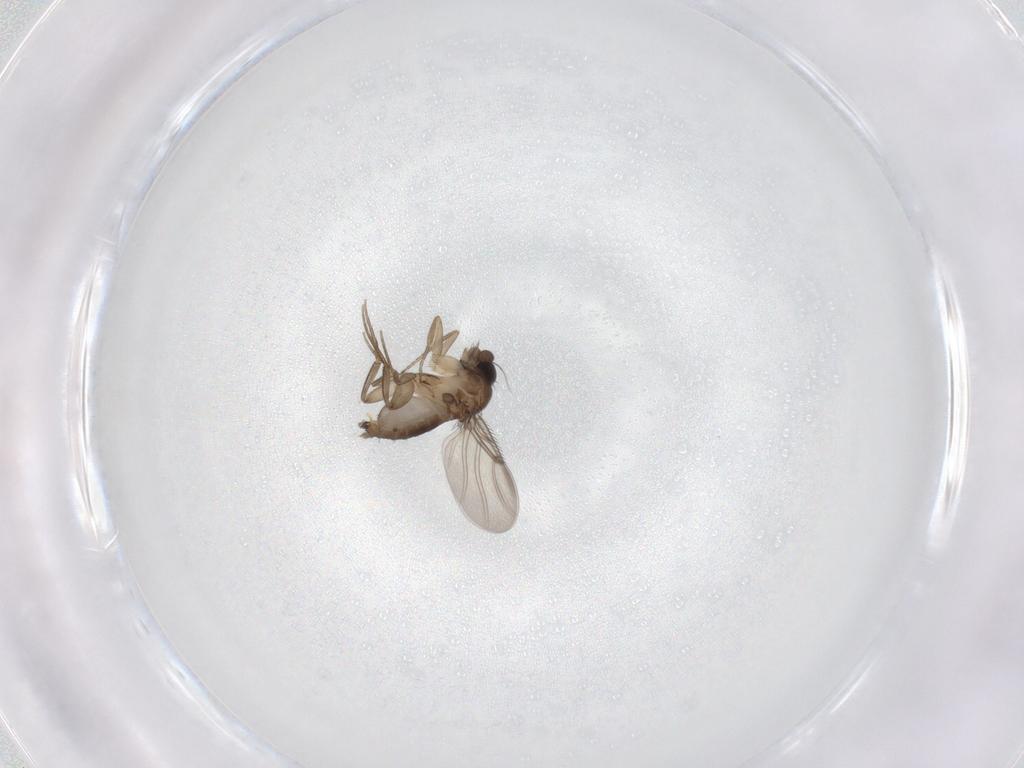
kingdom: Animalia
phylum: Arthropoda
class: Insecta
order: Diptera
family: Phoridae
